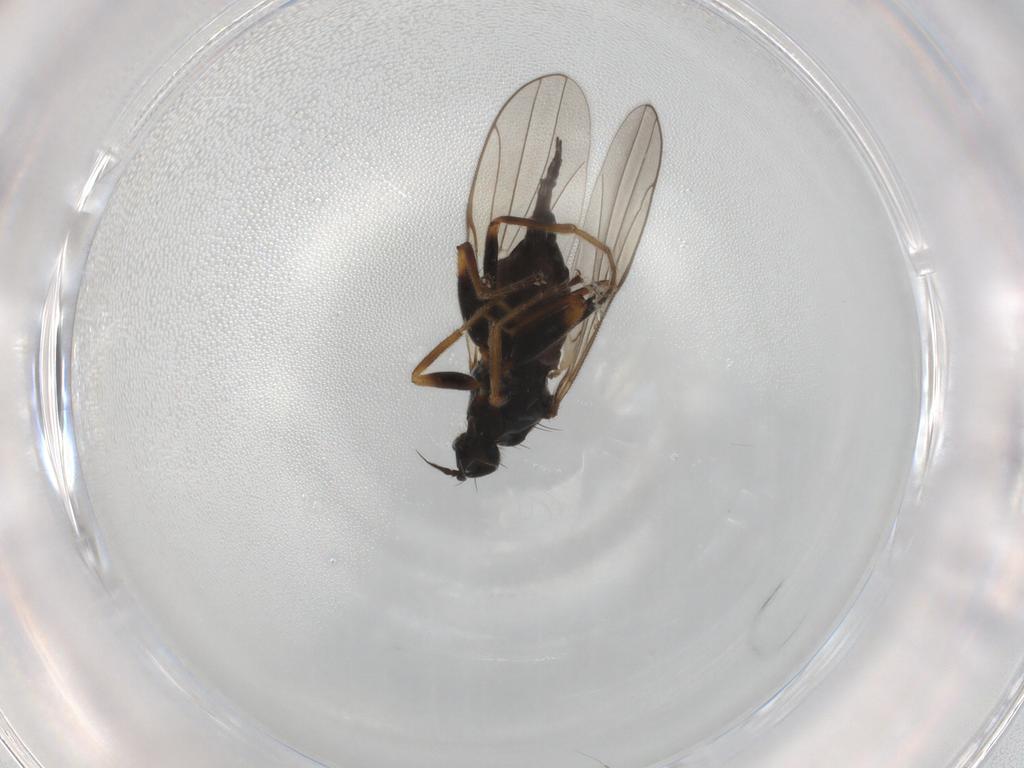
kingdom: Animalia
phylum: Arthropoda
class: Insecta
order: Diptera
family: Hybotidae
